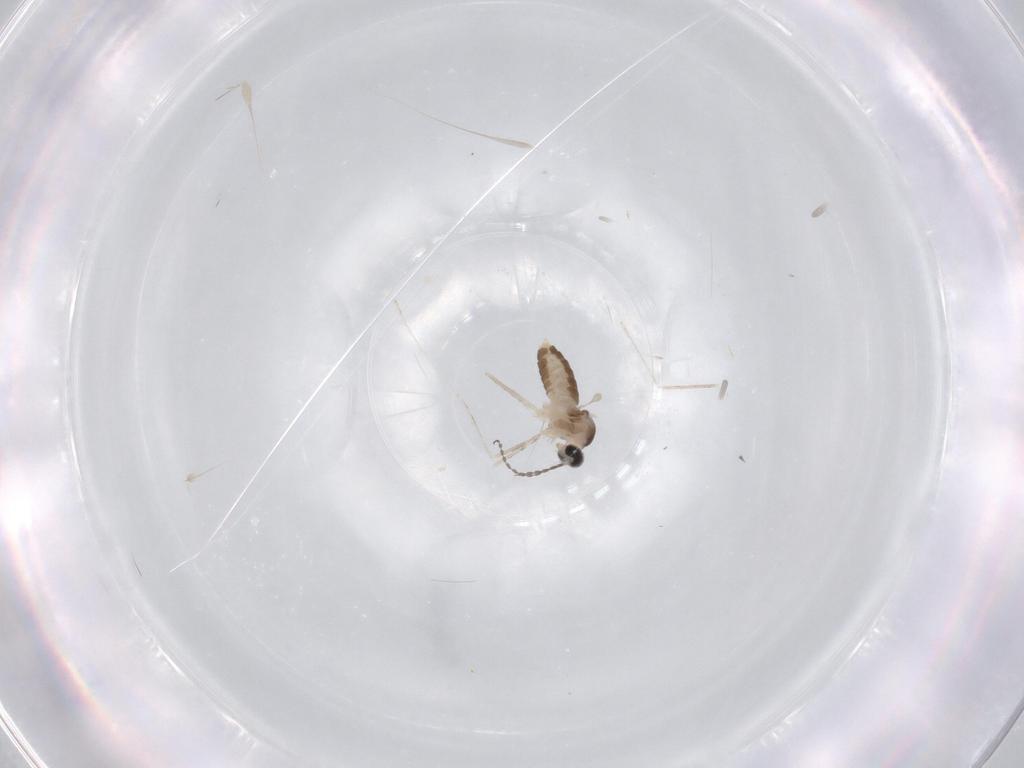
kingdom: Animalia
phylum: Arthropoda
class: Insecta
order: Diptera
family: Cecidomyiidae
